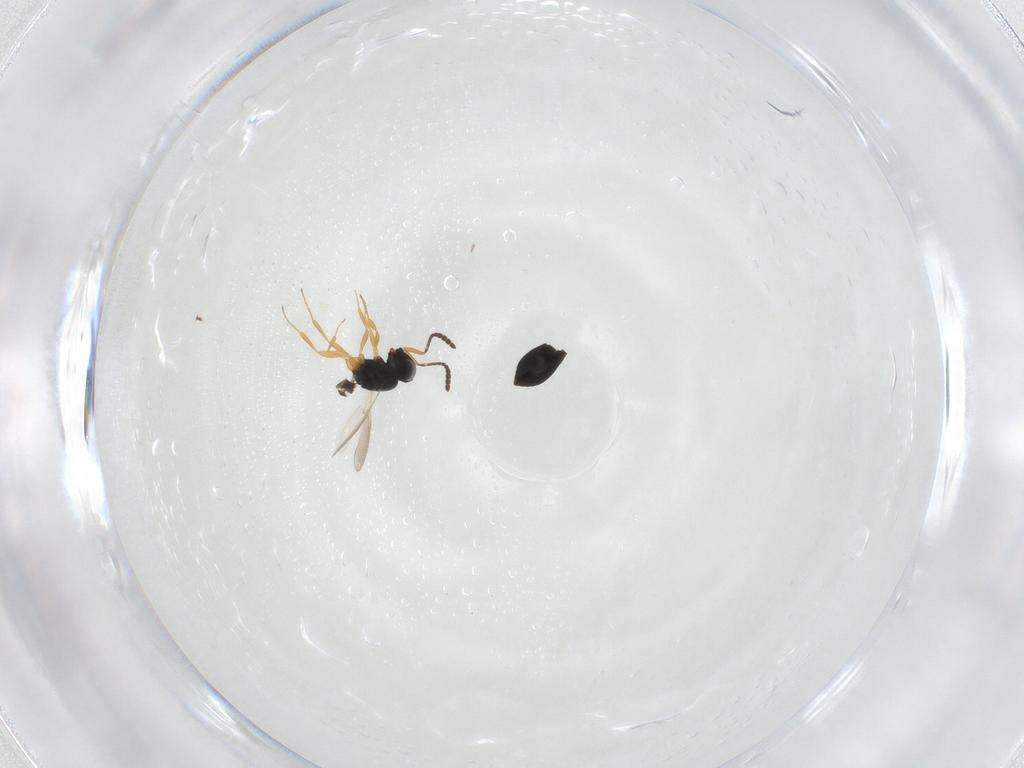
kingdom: Animalia
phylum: Arthropoda
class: Insecta
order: Hymenoptera
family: Scelionidae
